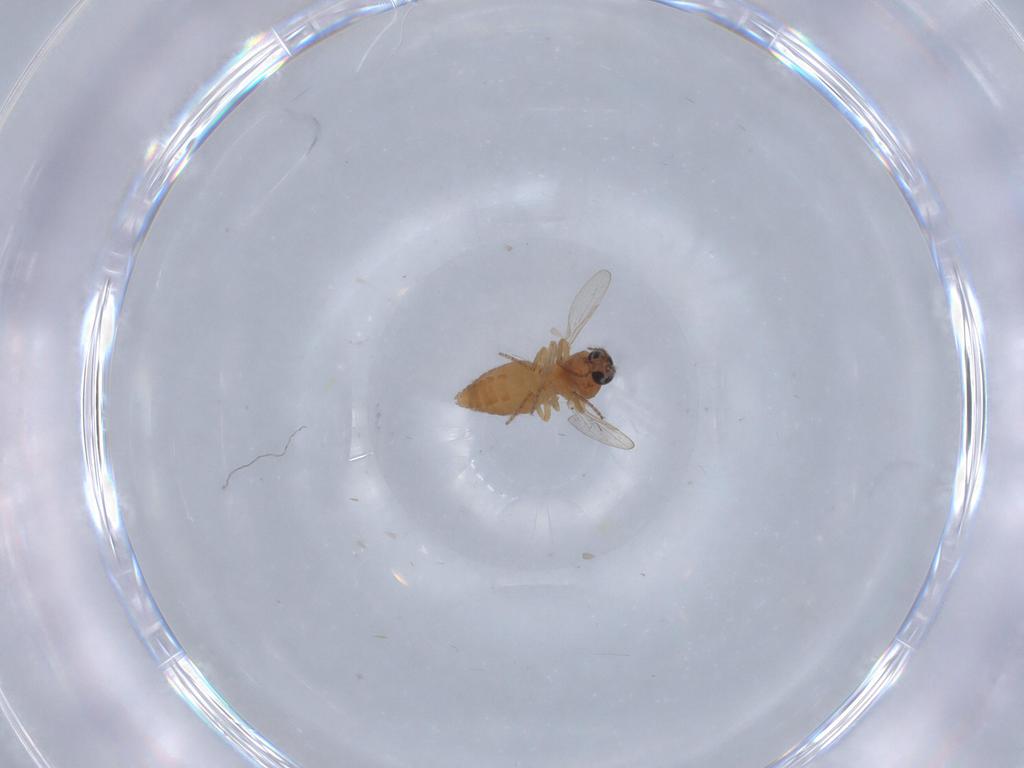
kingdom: Animalia
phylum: Arthropoda
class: Insecta
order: Diptera
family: Ceratopogonidae
